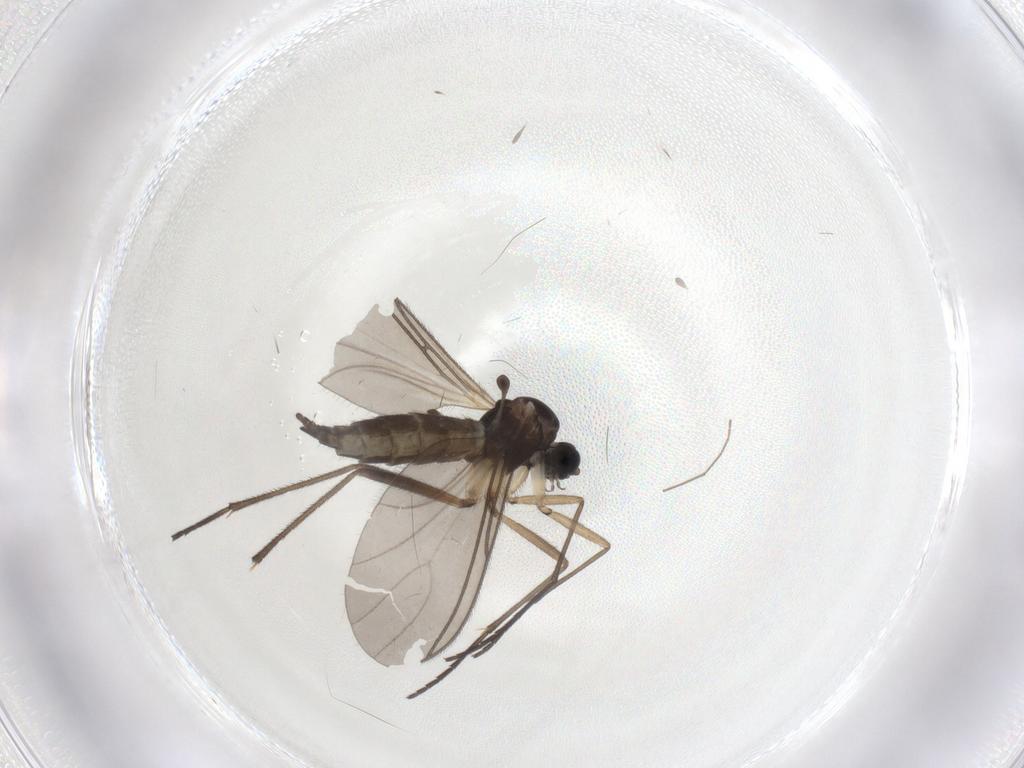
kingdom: Animalia
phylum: Arthropoda
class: Insecta
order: Diptera
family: Sciaridae
